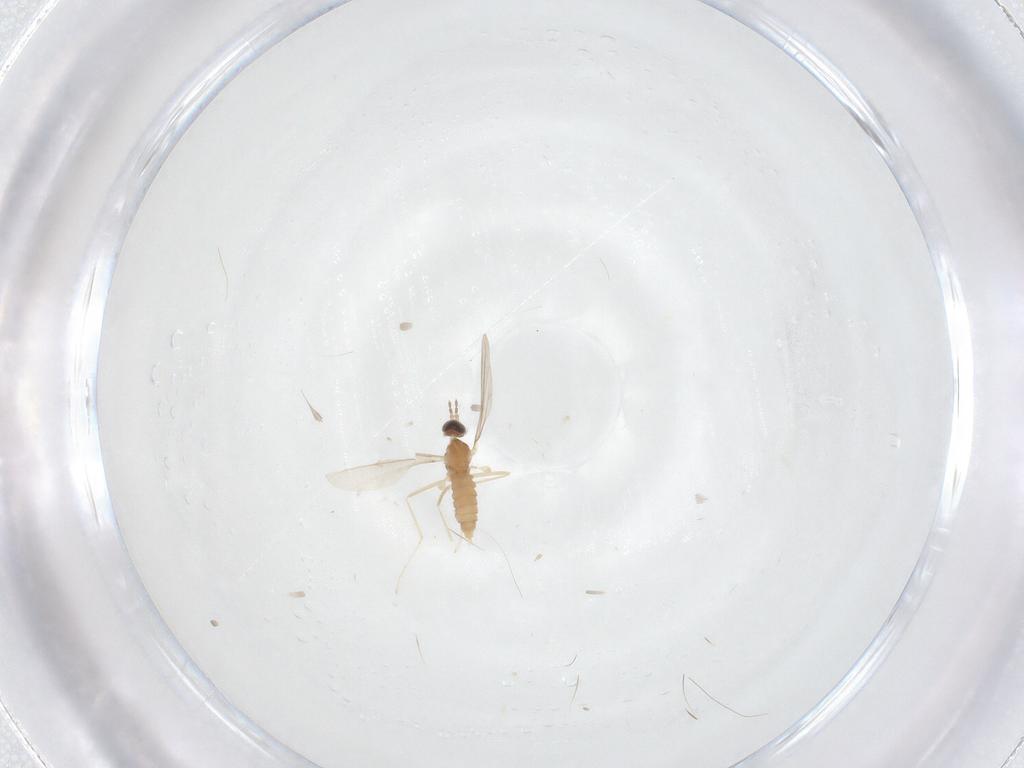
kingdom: Animalia
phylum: Arthropoda
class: Insecta
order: Diptera
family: Cecidomyiidae
